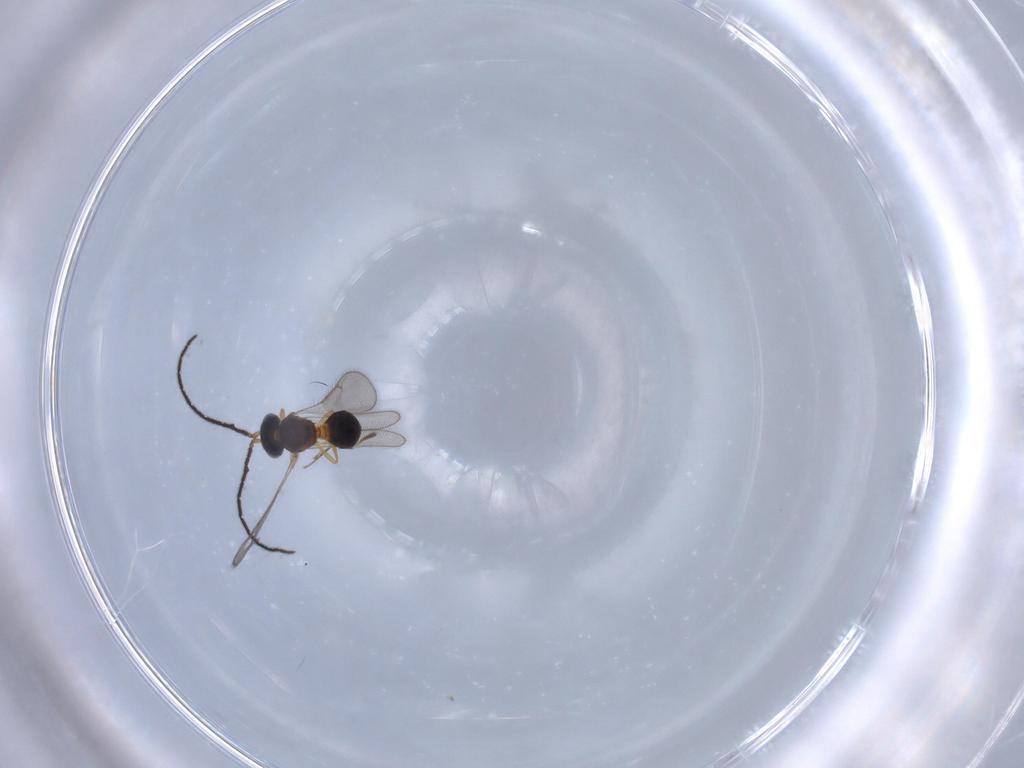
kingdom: Animalia
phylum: Arthropoda
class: Insecta
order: Hymenoptera
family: Scelionidae
